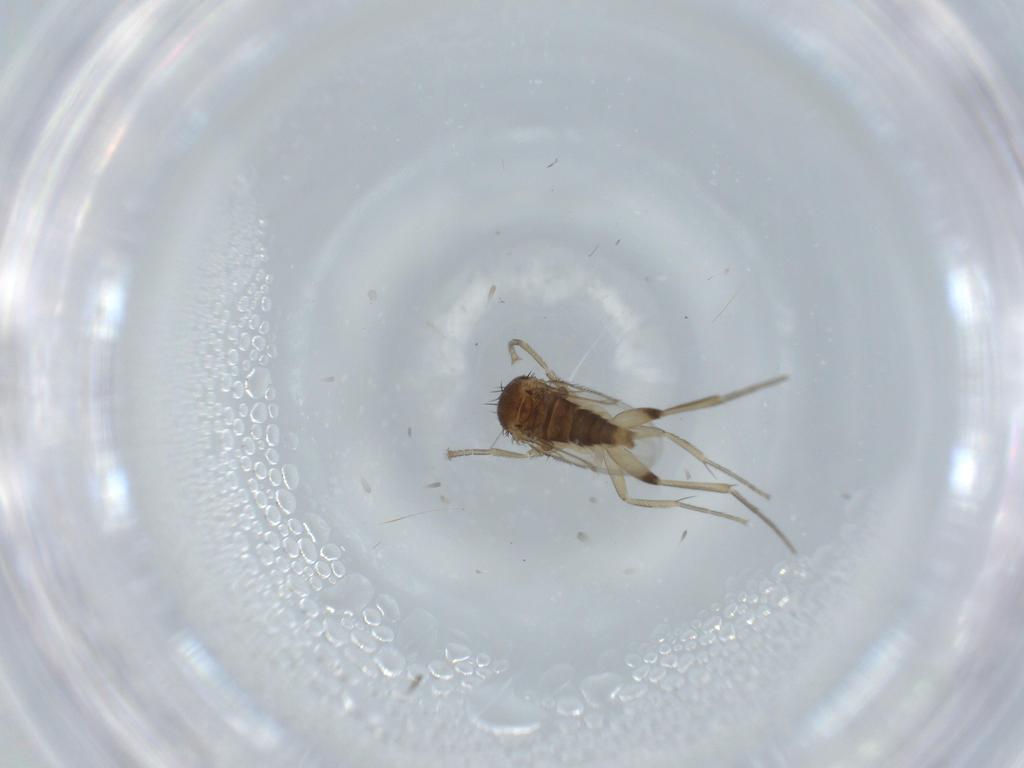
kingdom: Animalia
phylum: Arthropoda
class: Insecta
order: Diptera
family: Phoridae
